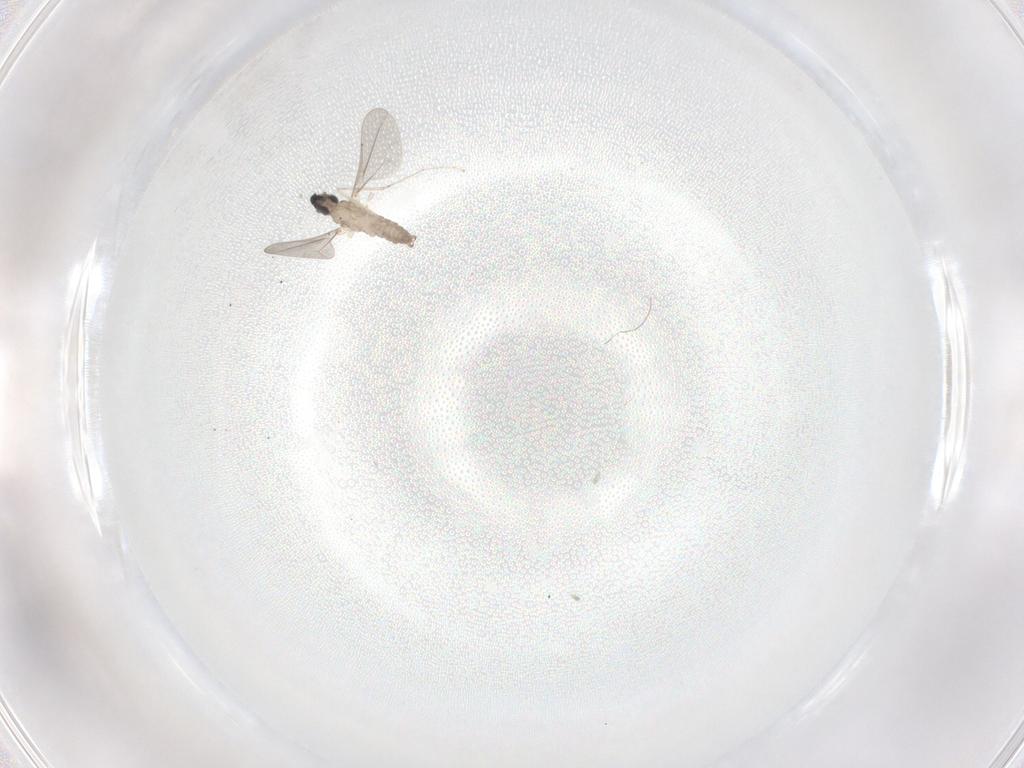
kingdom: Animalia
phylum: Arthropoda
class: Insecta
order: Diptera
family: Cecidomyiidae
